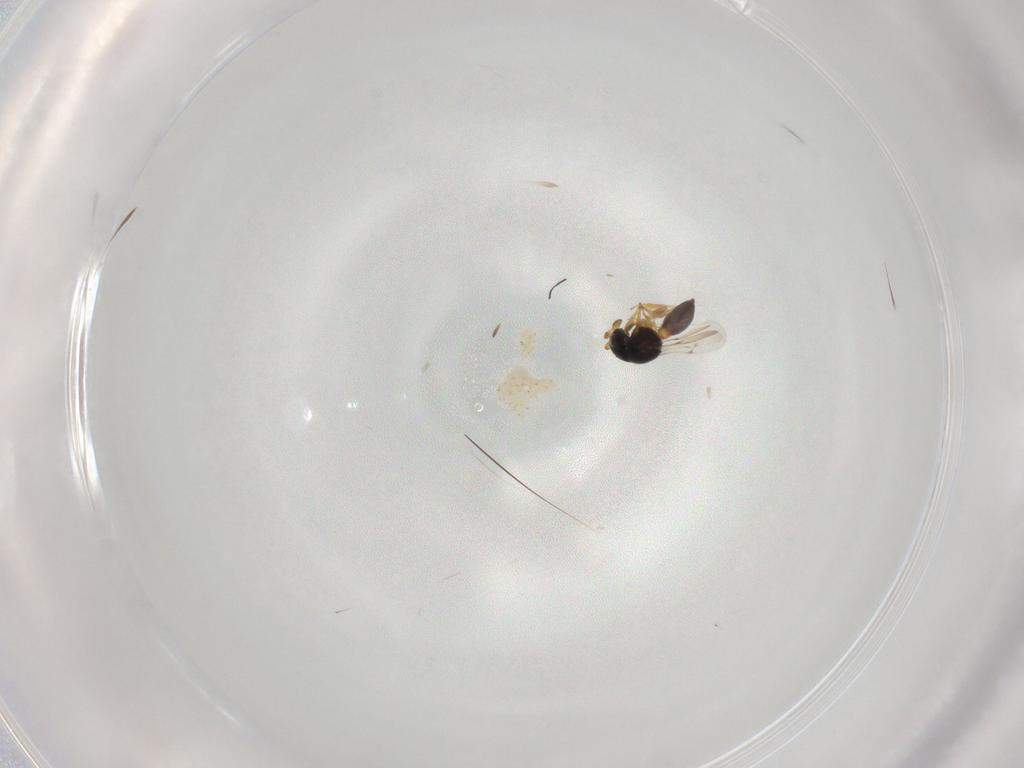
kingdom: Animalia
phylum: Arthropoda
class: Insecta
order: Hymenoptera
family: Scelionidae
